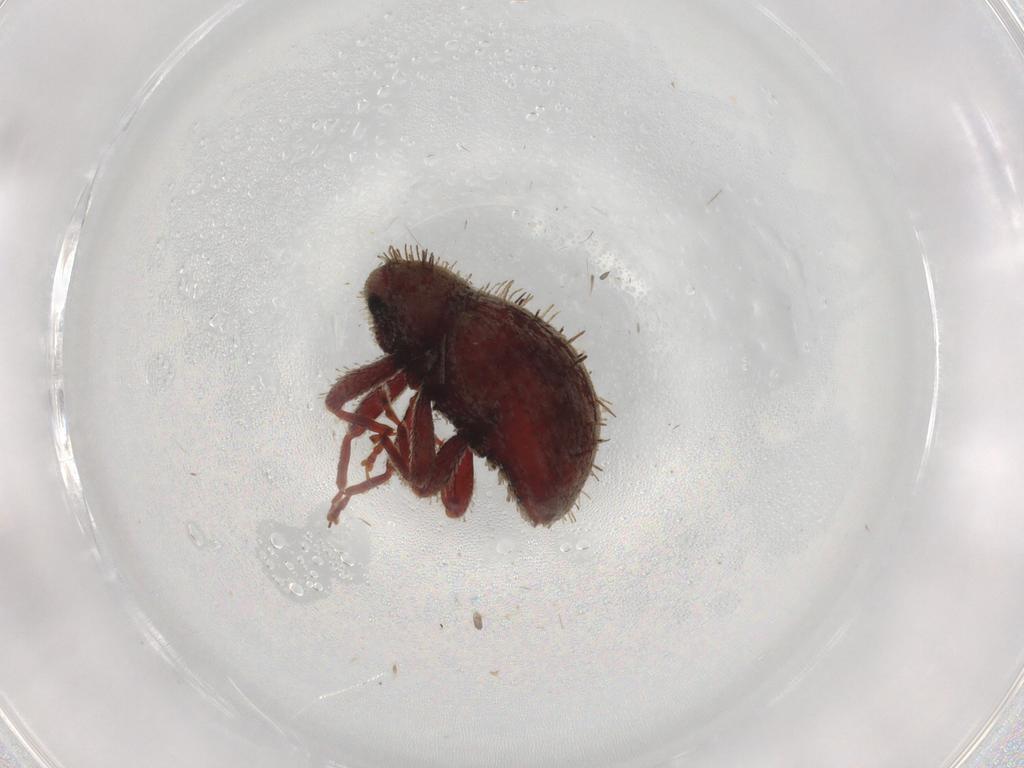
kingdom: Animalia
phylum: Arthropoda
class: Insecta
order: Coleoptera
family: Curculionidae
